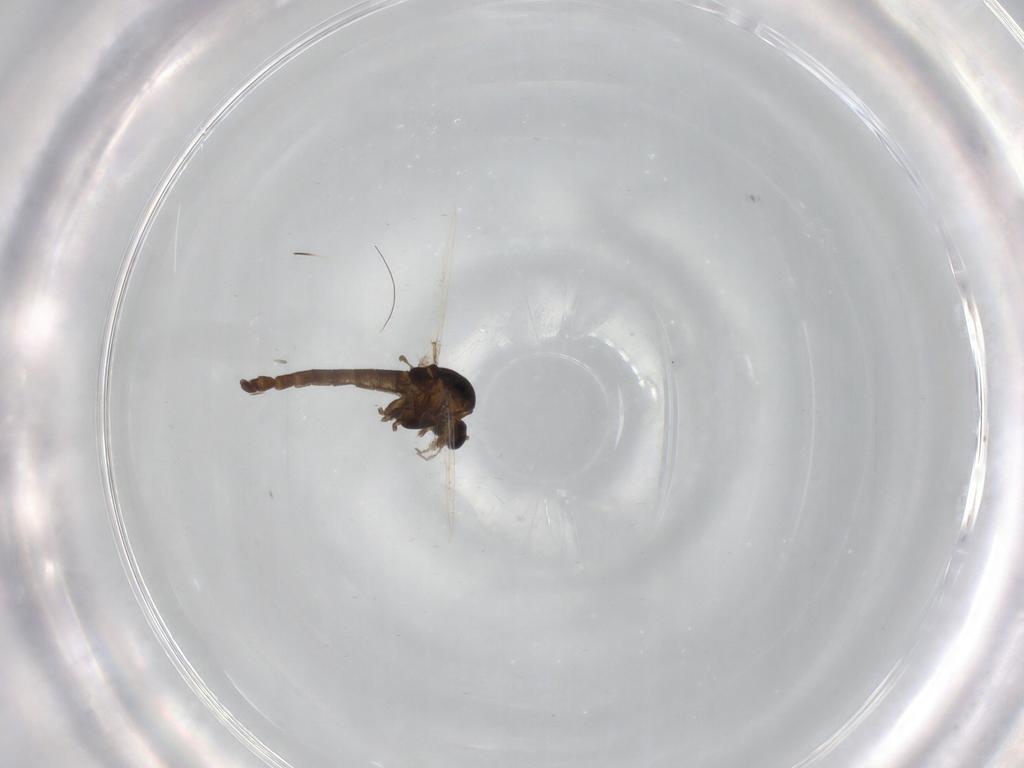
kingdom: Animalia
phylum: Arthropoda
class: Insecta
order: Diptera
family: Chironomidae
